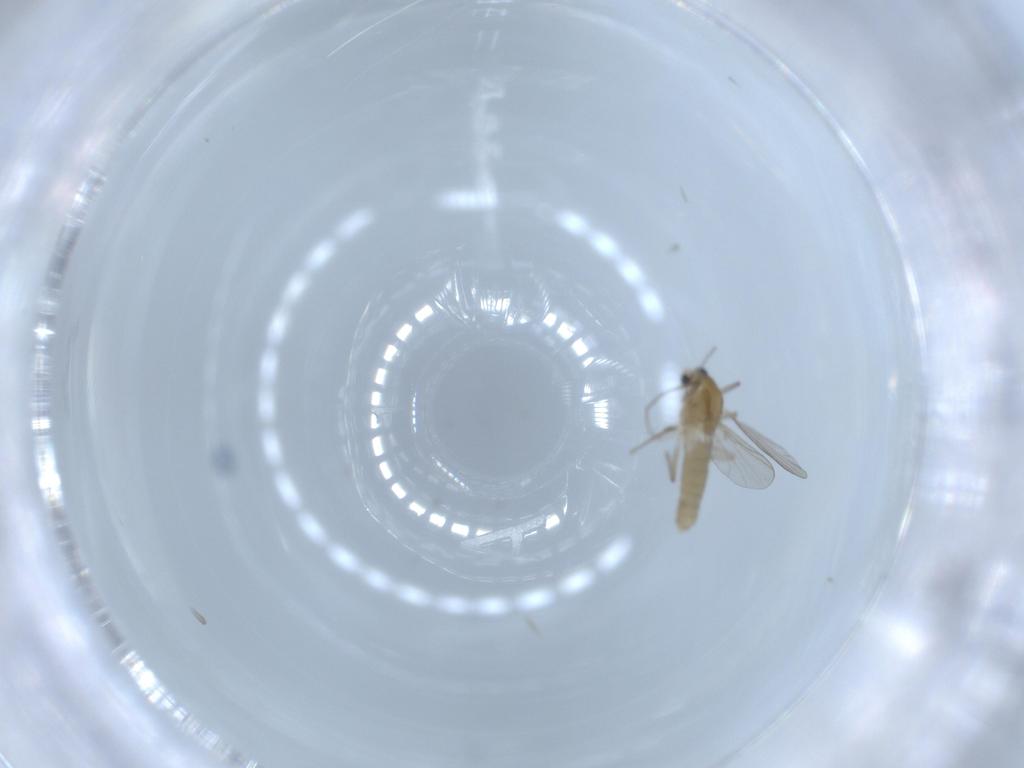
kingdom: Animalia
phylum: Arthropoda
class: Insecta
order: Diptera
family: Chironomidae
